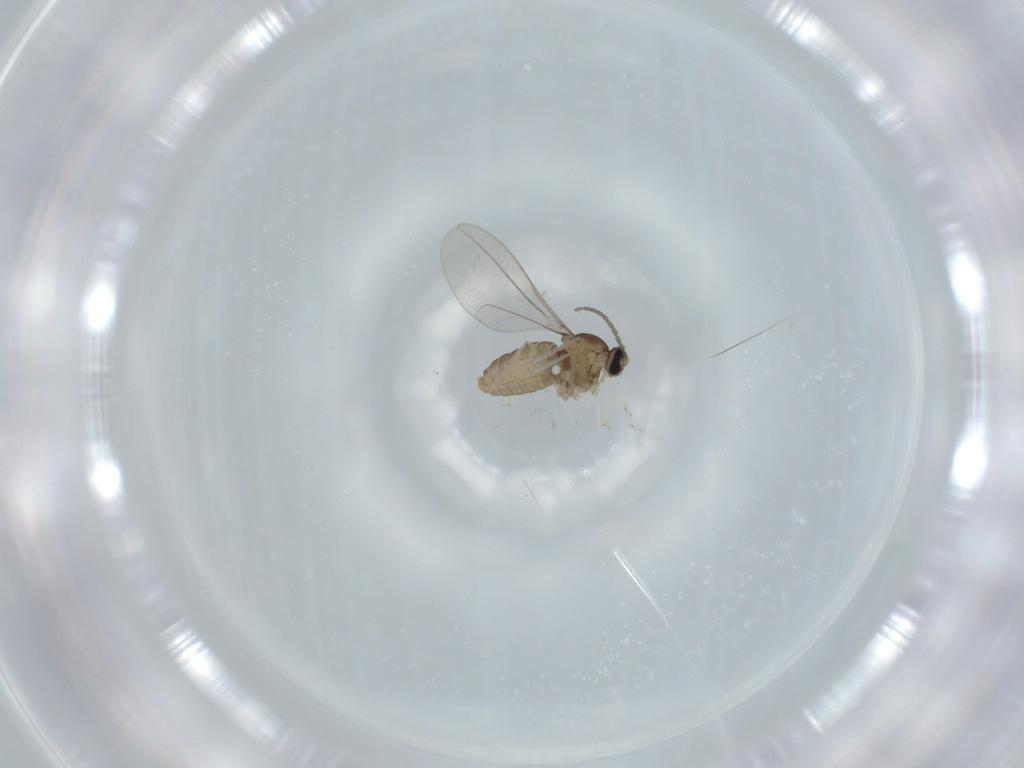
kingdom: Animalia
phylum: Arthropoda
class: Insecta
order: Diptera
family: Cecidomyiidae
